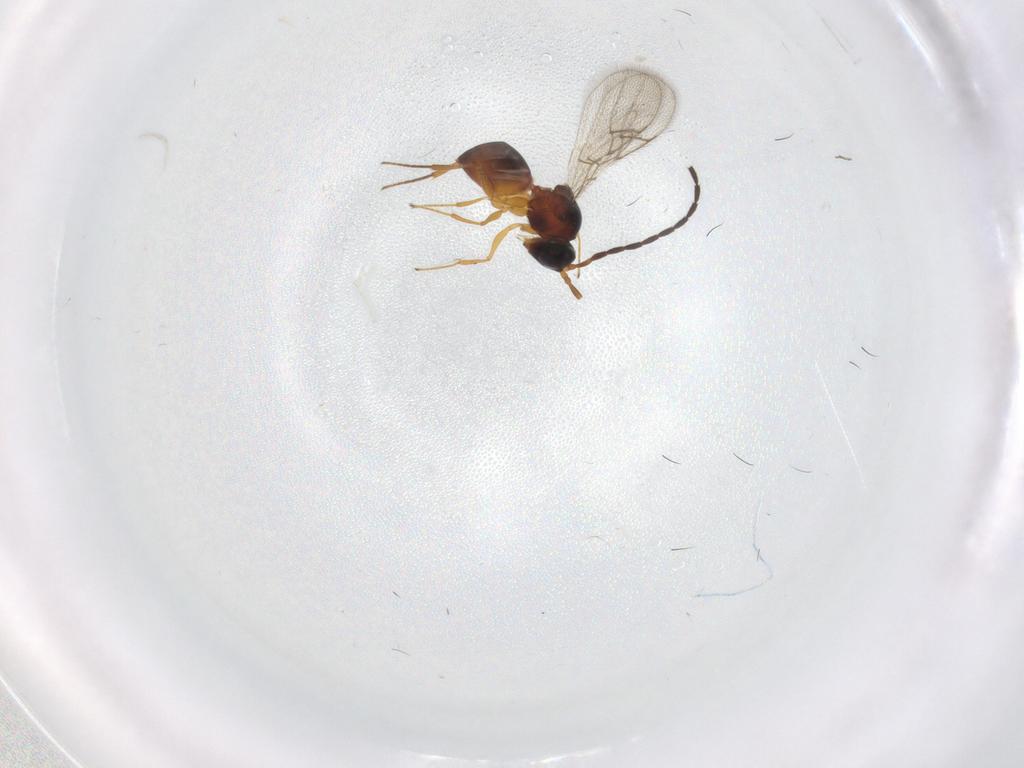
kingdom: Animalia
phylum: Arthropoda
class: Insecta
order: Hymenoptera
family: Figitidae
